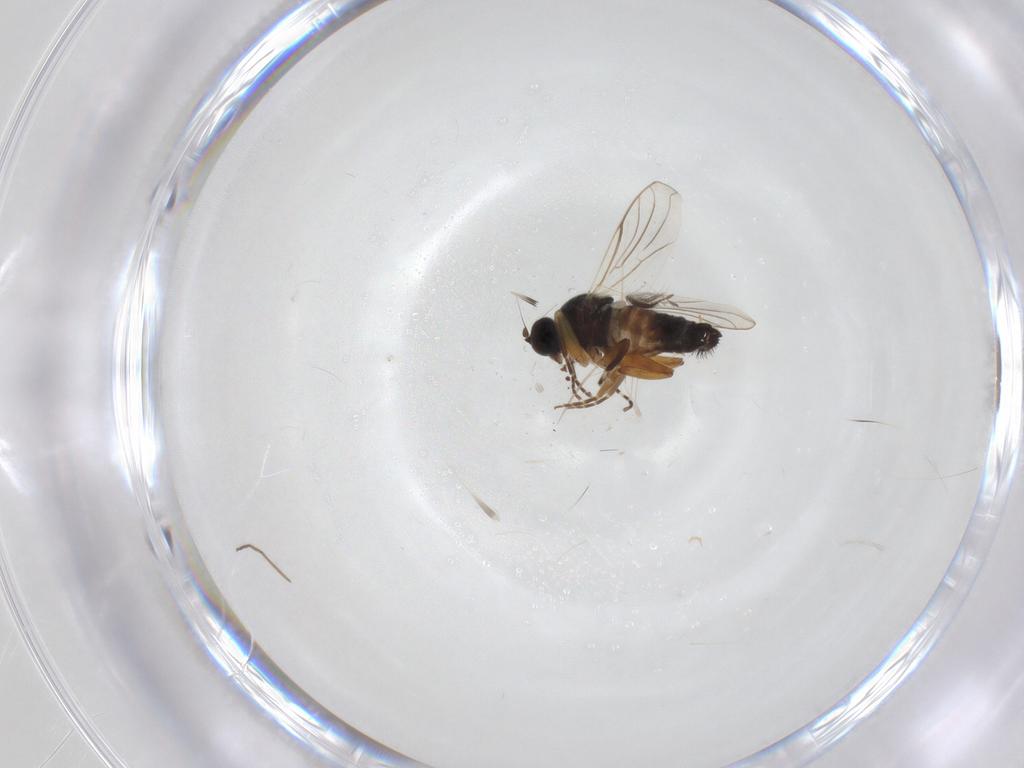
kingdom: Animalia
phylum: Arthropoda
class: Insecta
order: Diptera
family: Hybotidae
